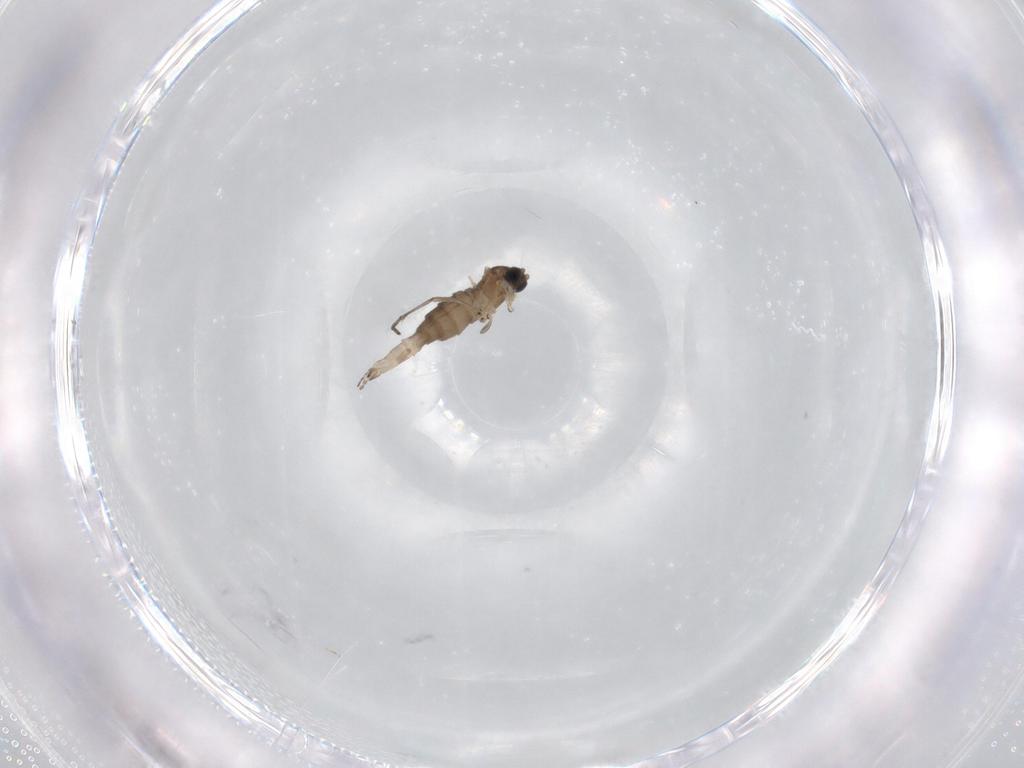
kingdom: Animalia
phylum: Arthropoda
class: Insecta
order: Diptera
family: Sciaridae
